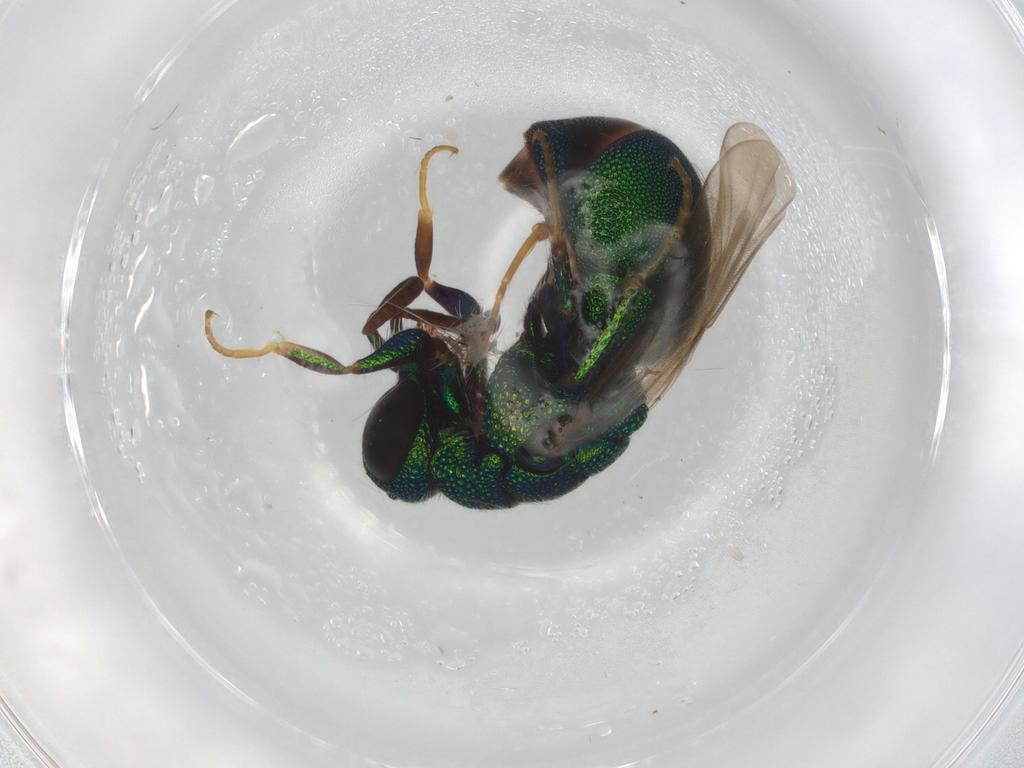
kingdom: Animalia
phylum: Arthropoda
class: Insecta
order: Hymenoptera
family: Chrysididae
